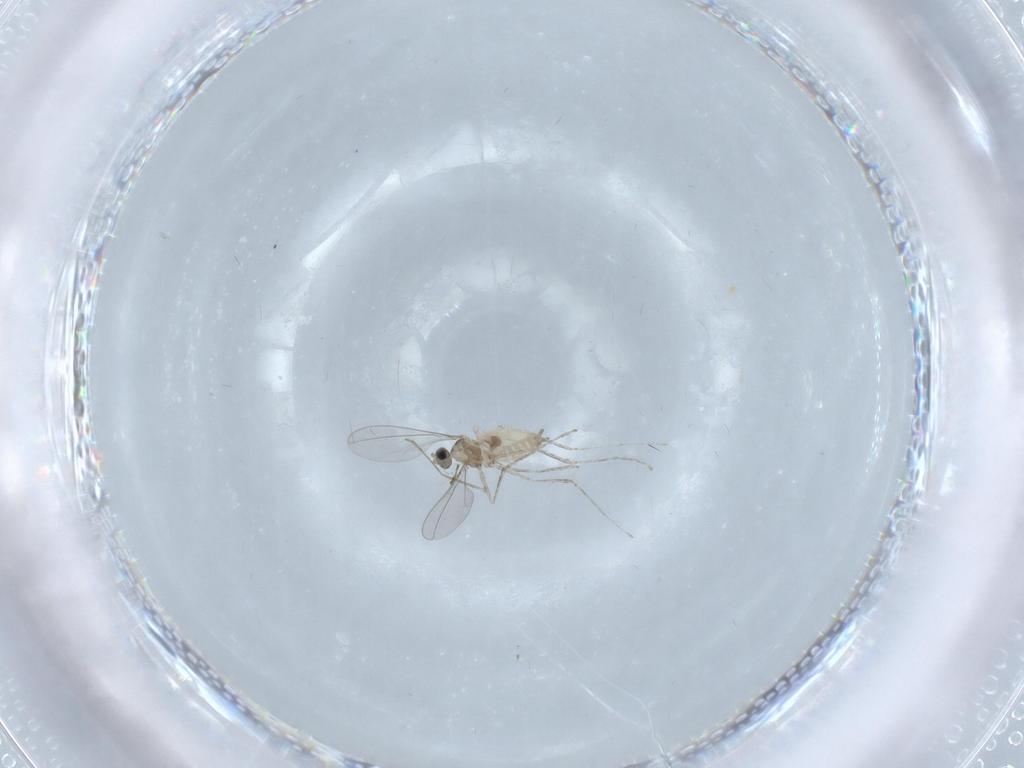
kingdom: Animalia
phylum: Arthropoda
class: Insecta
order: Diptera
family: Cecidomyiidae
